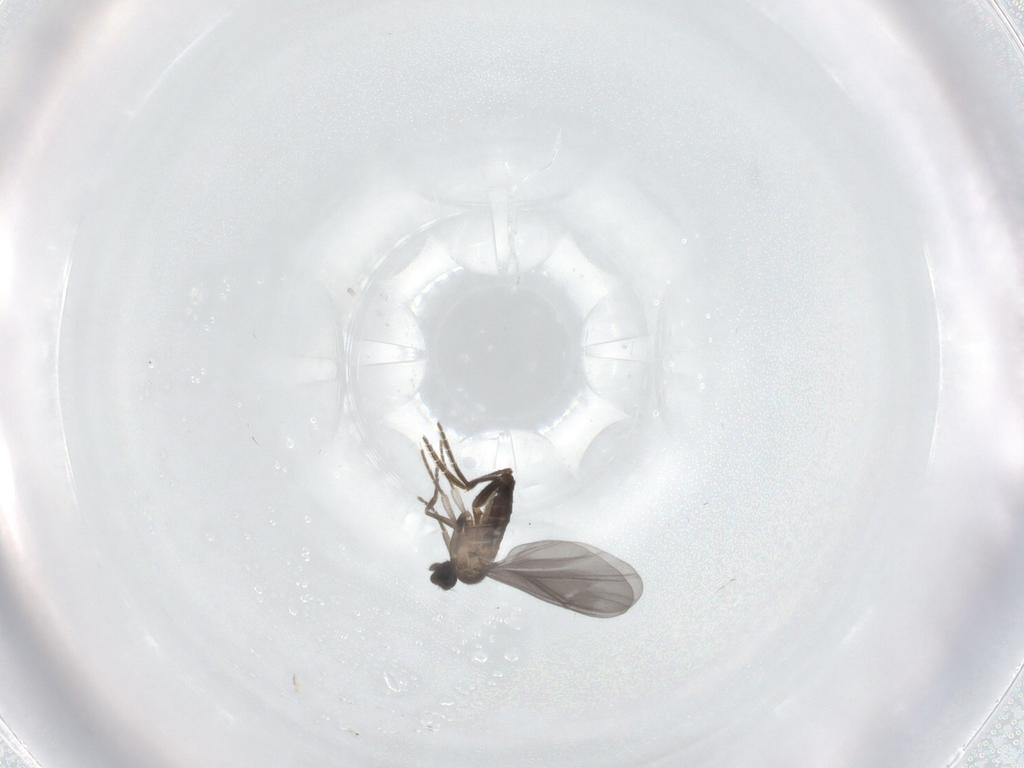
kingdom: Animalia
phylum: Arthropoda
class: Insecta
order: Diptera
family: Phoridae
